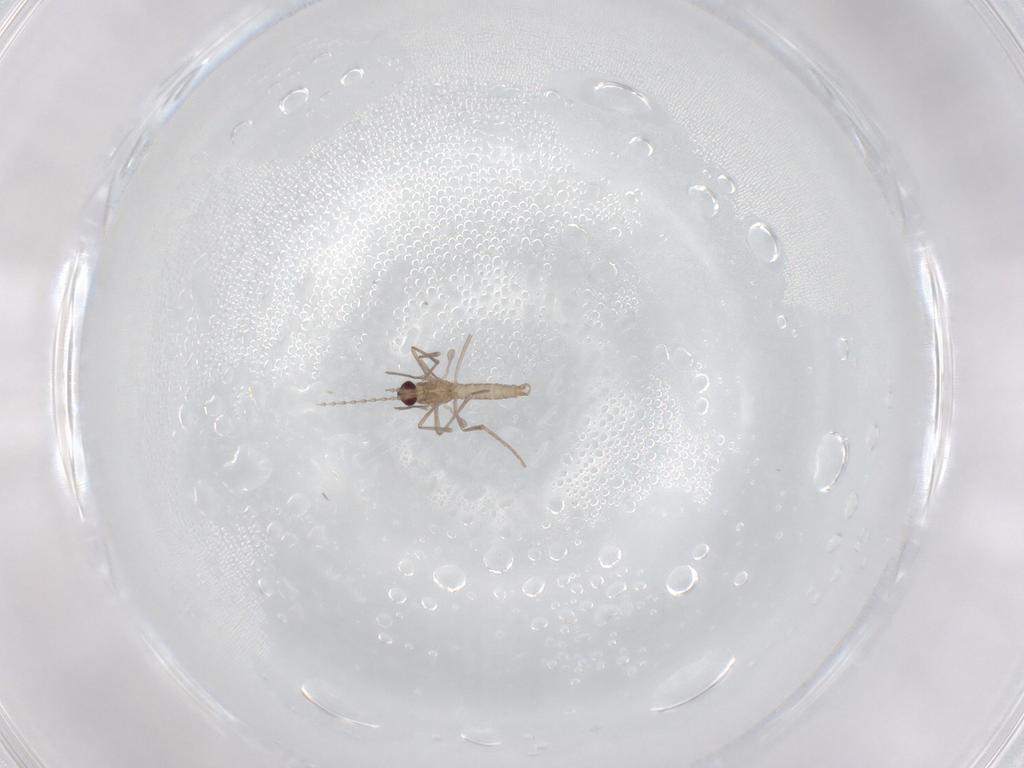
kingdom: Animalia
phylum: Arthropoda
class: Insecta
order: Diptera
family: Cecidomyiidae
